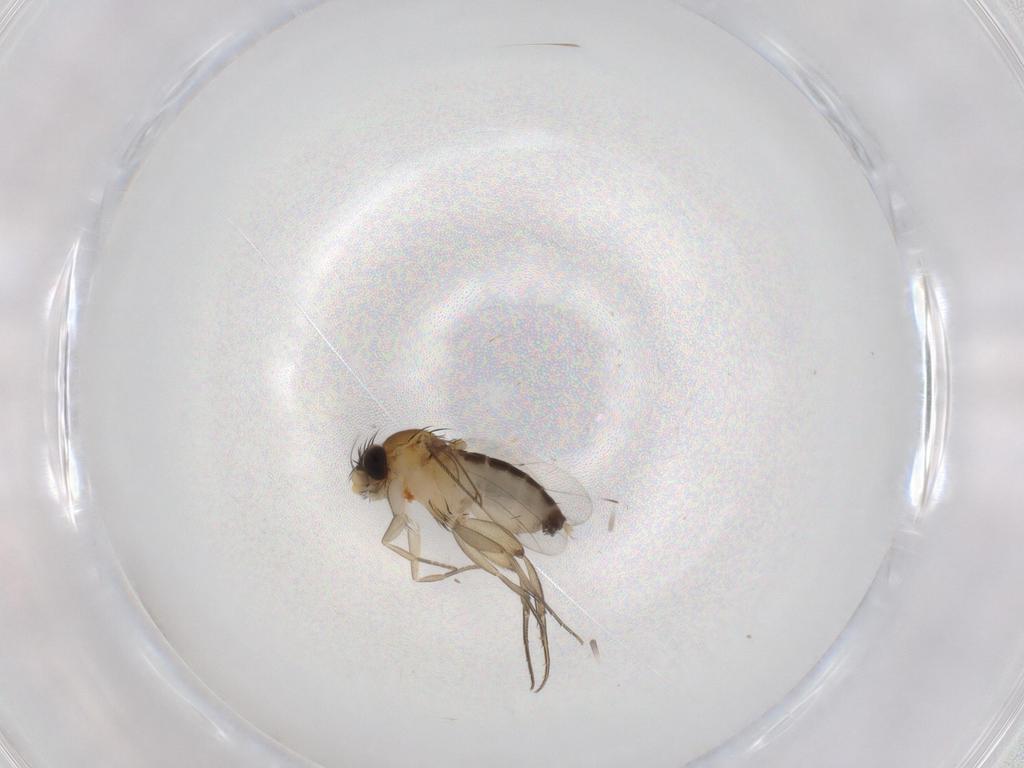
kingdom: Animalia
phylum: Arthropoda
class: Insecta
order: Diptera
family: Phoridae
